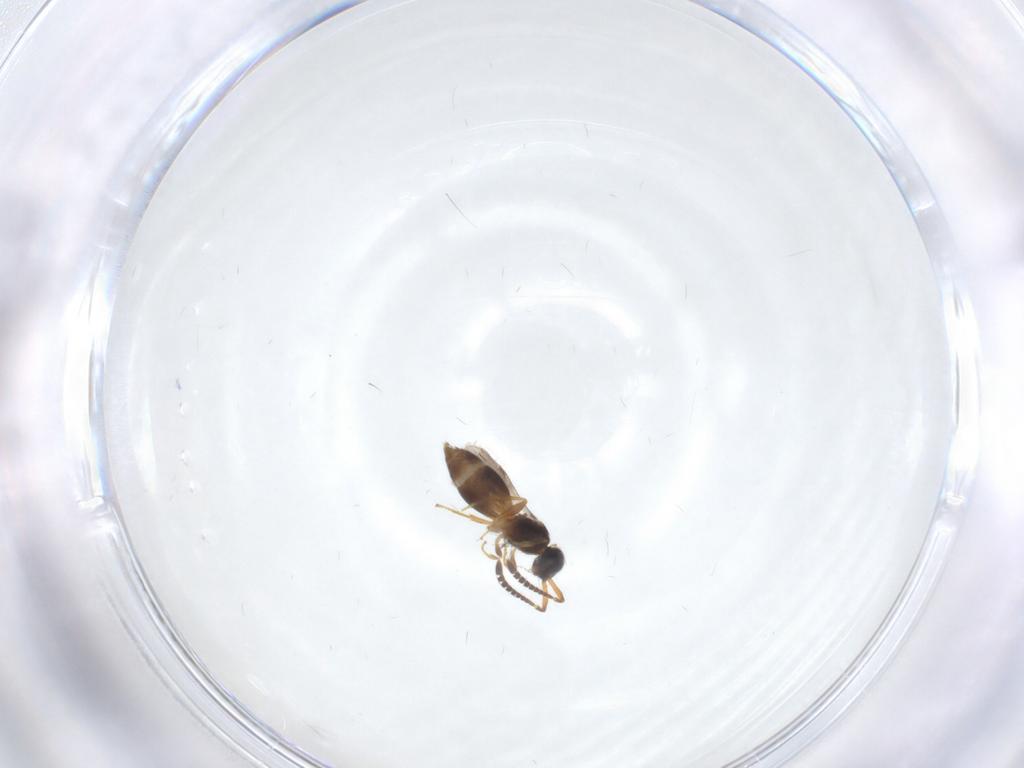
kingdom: Animalia
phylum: Arthropoda
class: Insecta
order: Hymenoptera
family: Megaspilidae
